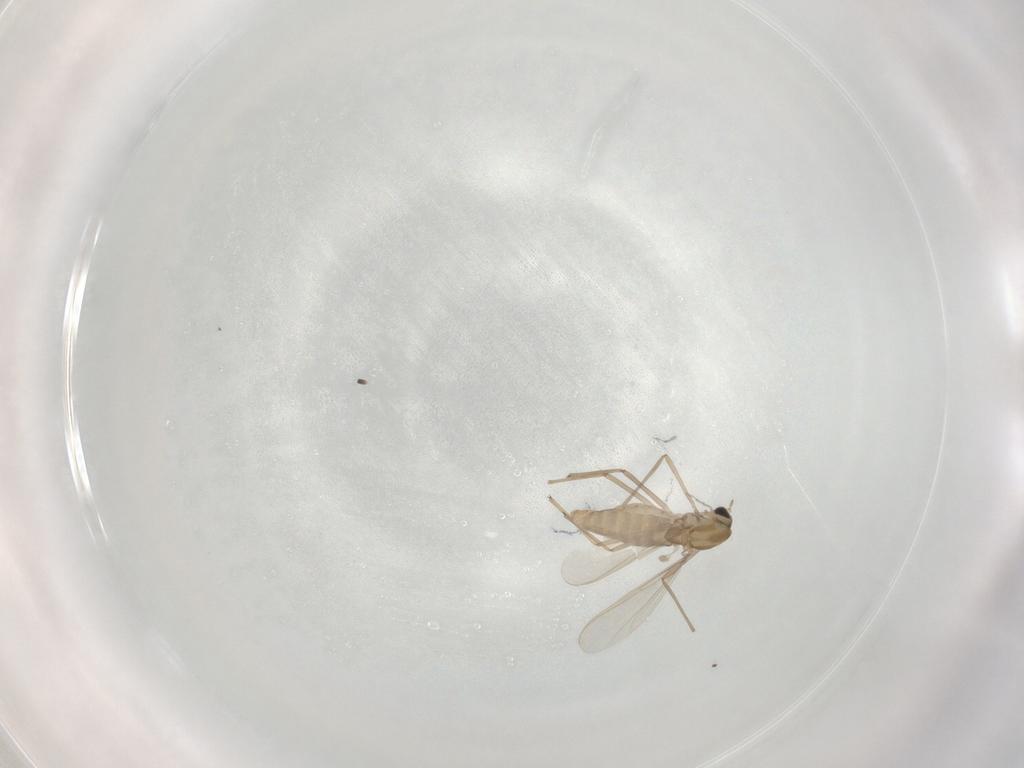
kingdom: Animalia
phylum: Arthropoda
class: Insecta
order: Diptera
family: Chironomidae
